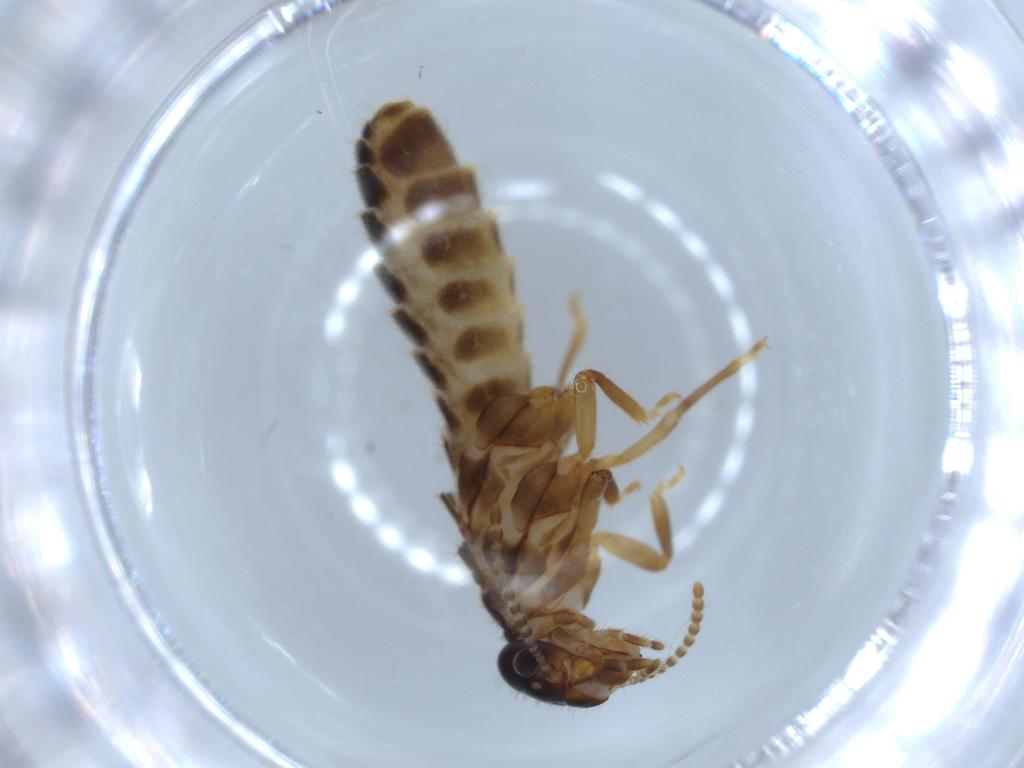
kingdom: Animalia
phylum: Arthropoda
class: Insecta
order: Blattodea
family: Termitidae
